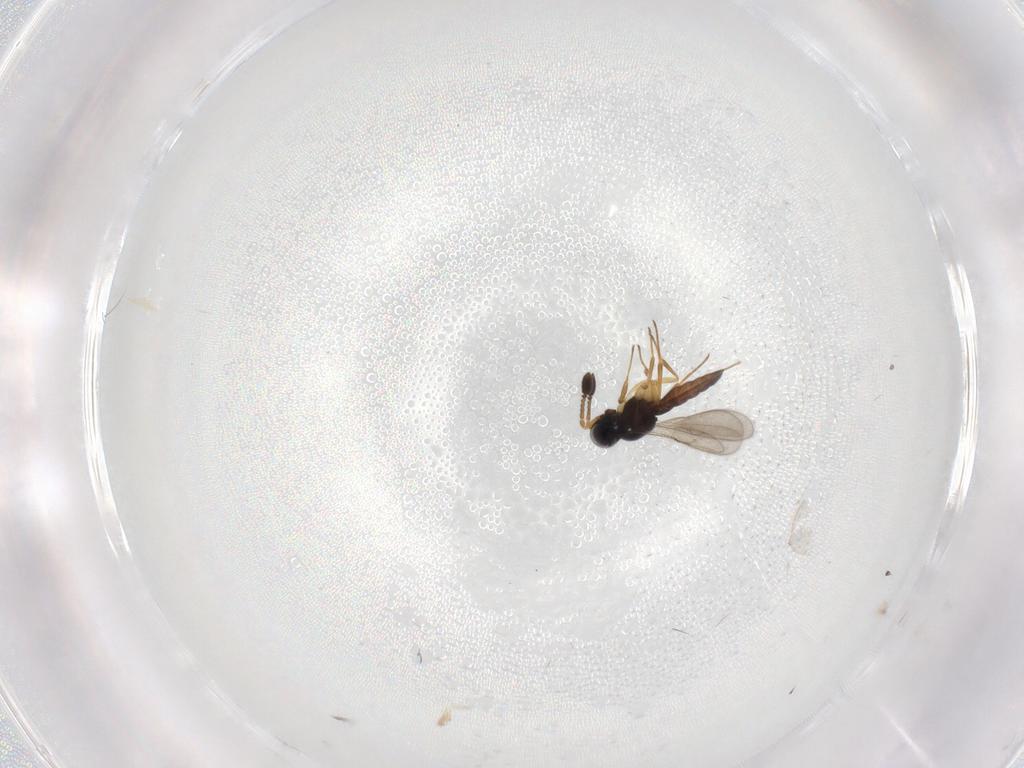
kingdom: Animalia
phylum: Arthropoda
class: Insecta
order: Hymenoptera
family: Scelionidae
